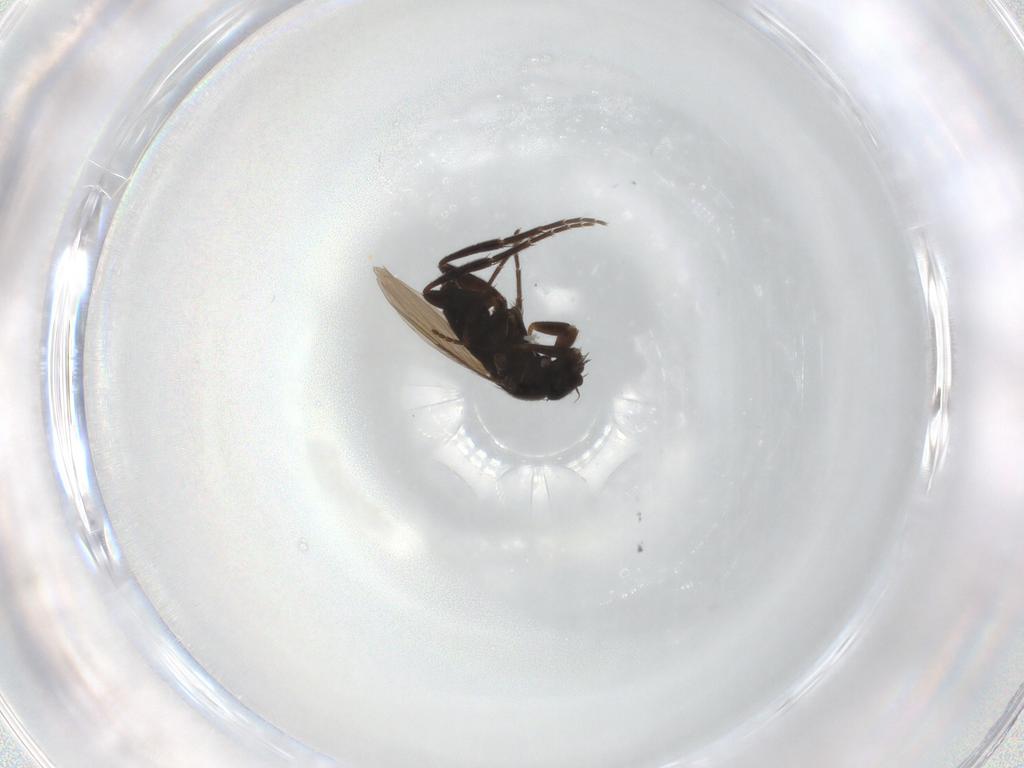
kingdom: Animalia
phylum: Arthropoda
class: Insecta
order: Diptera
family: Chironomidae
